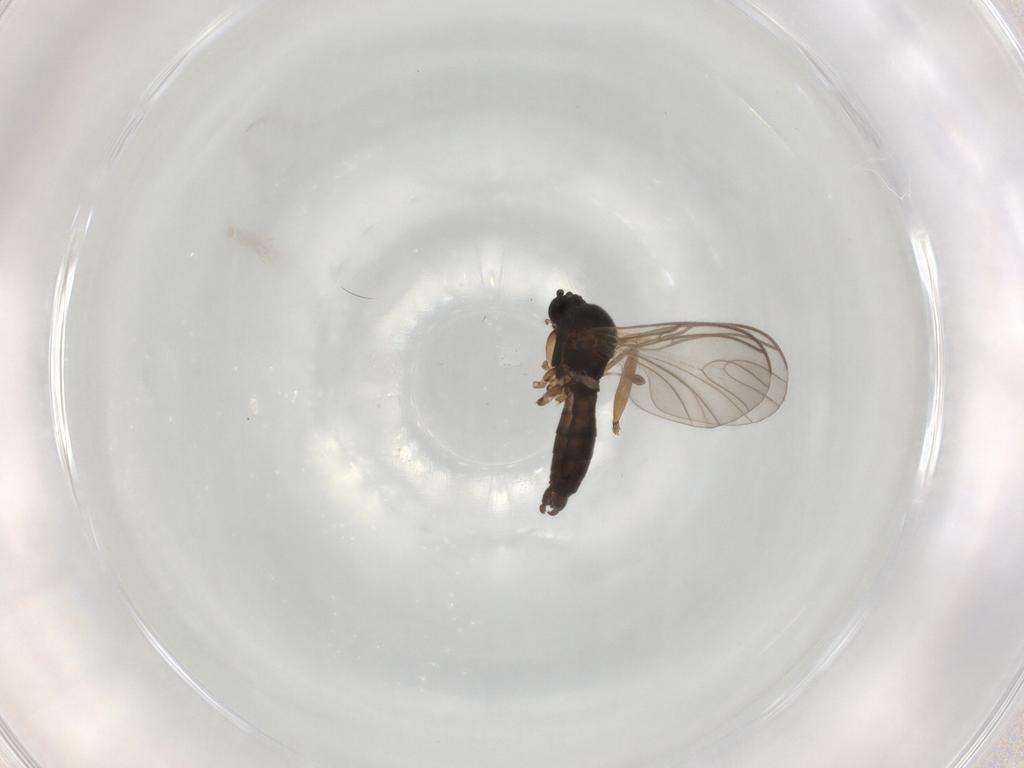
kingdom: Animalia
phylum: Arthropoda
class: Insecta
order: Diptera
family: Sciaridae
